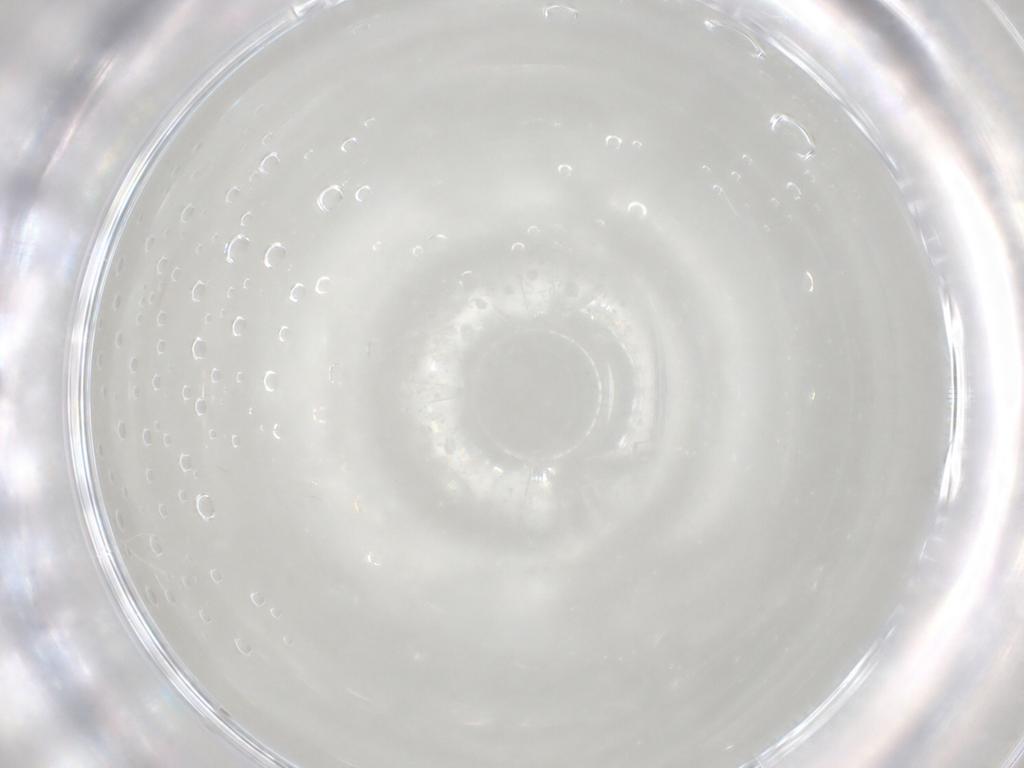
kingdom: Animalia
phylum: Arthropoda
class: Arachnida
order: Trombidiformes
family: Eupodidae
